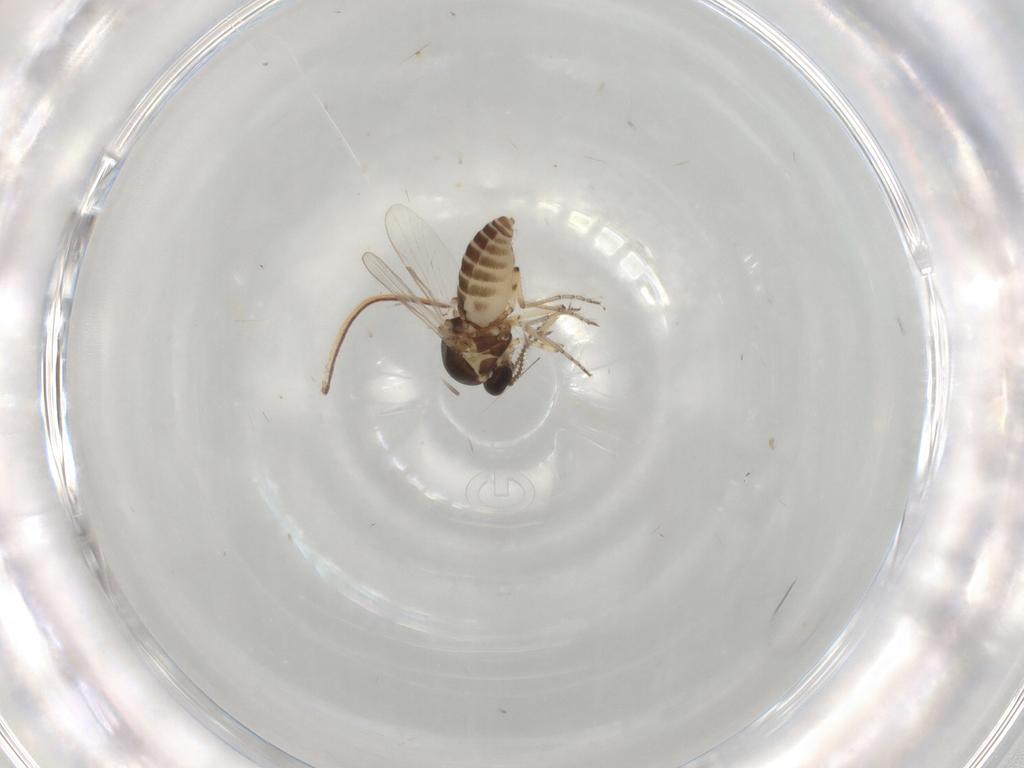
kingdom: Animalia
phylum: Arthropoda
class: Insecta
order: Diptera
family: Ceratopogonidae
